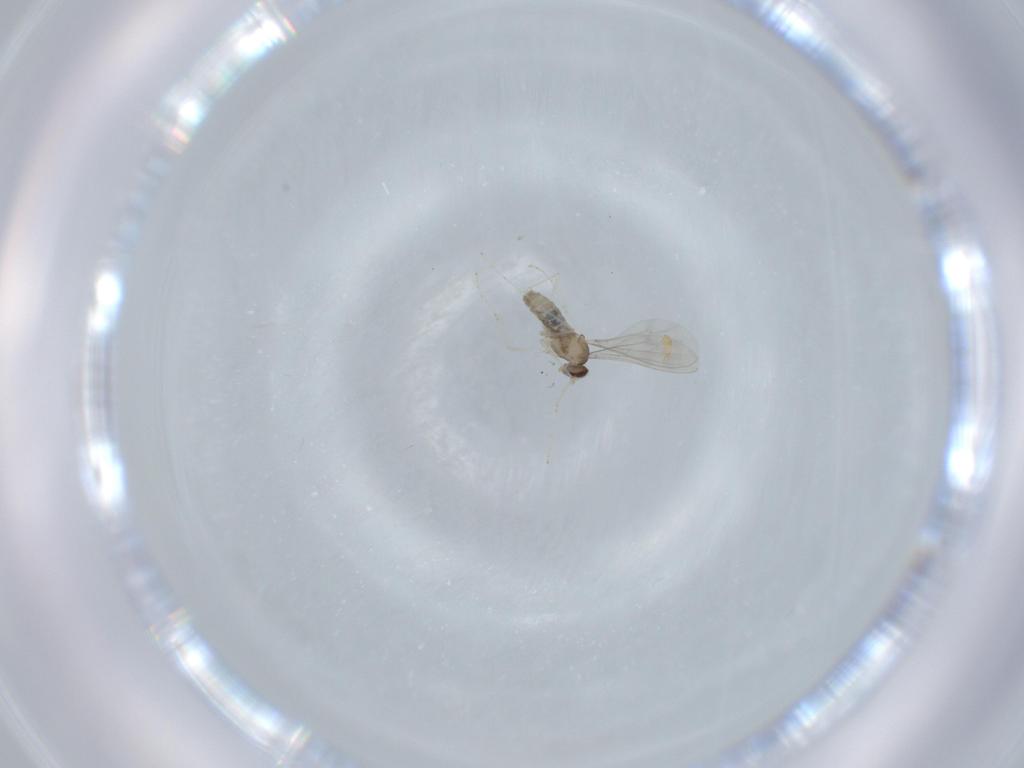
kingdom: Animalia
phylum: Arthropoda
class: Insecta
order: Diptera
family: Cecidomyiidae
